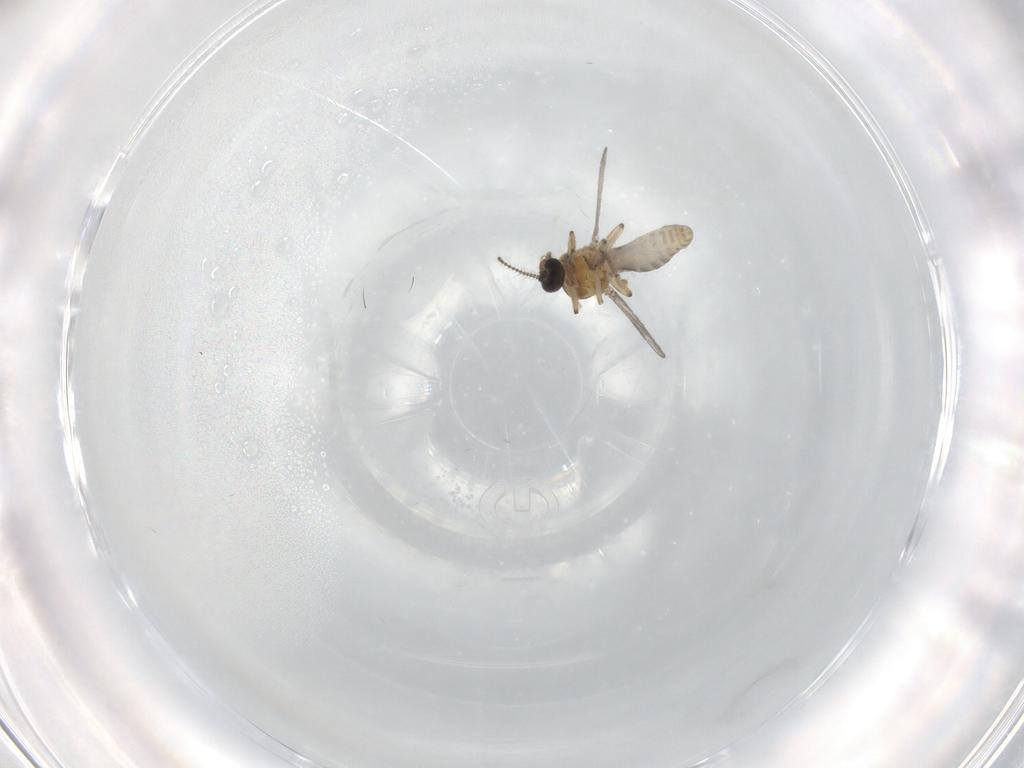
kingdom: Animalia
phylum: Arthropoda
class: Insecta
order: Diptera
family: Ceratopogonidae
